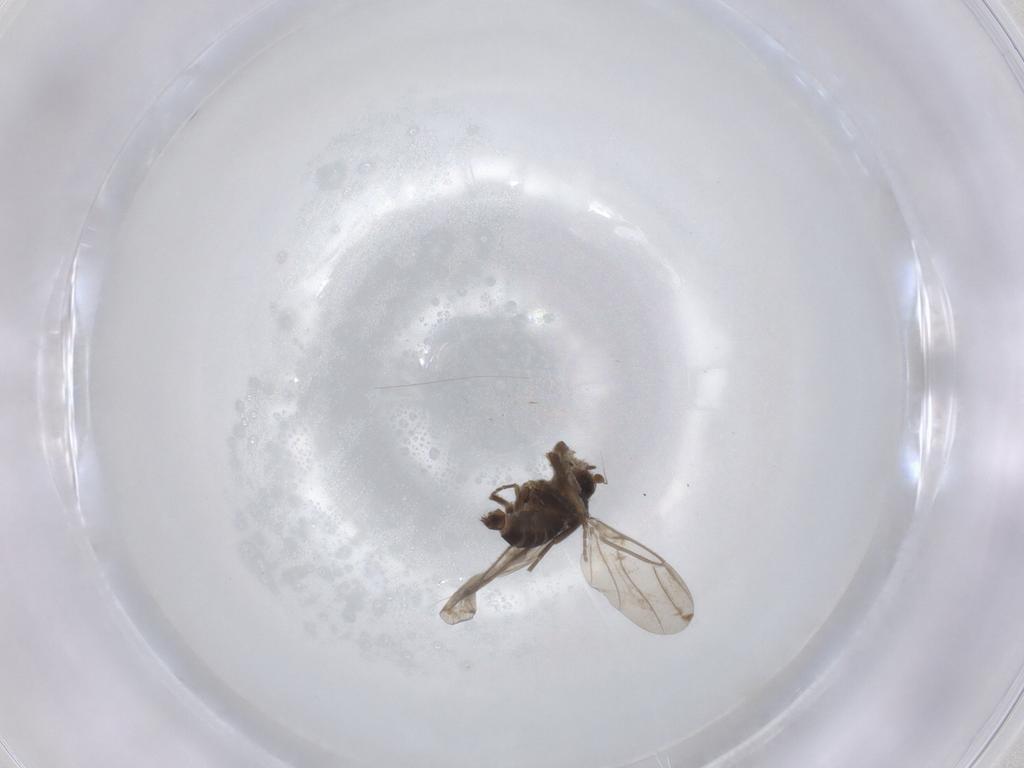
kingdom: Animalia
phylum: Arthropoda
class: Insecta
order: Diptera
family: Phoridae
